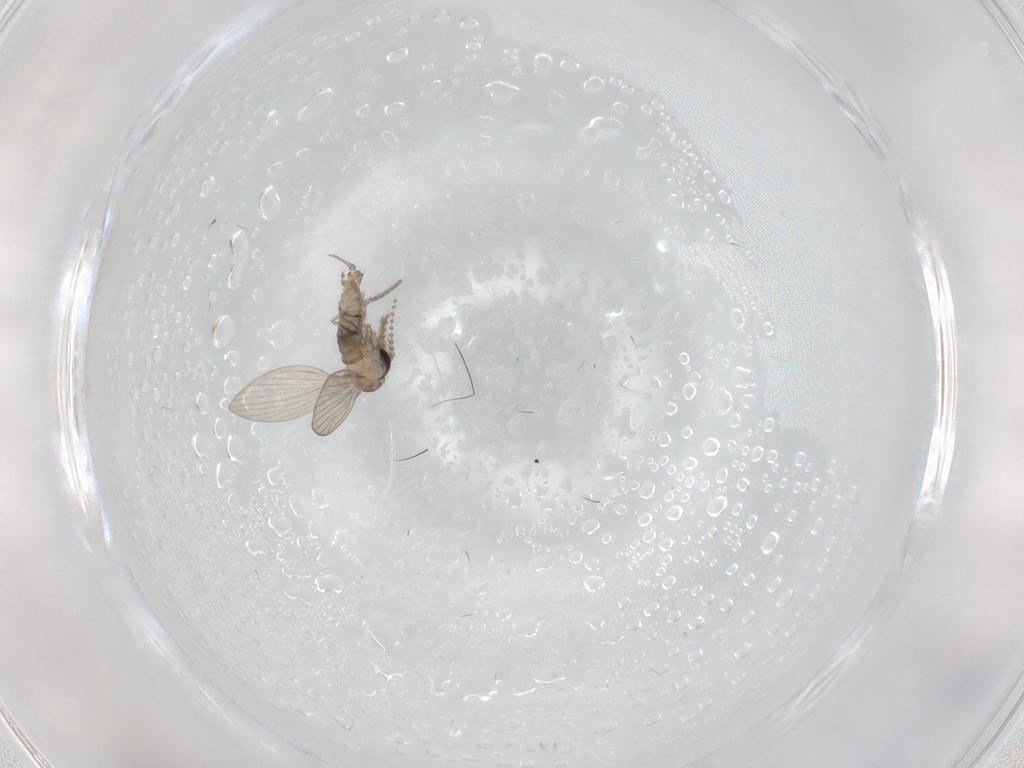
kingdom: Animalia
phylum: Arthropoda
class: Insecta
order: Diptera
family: Psychodidae
